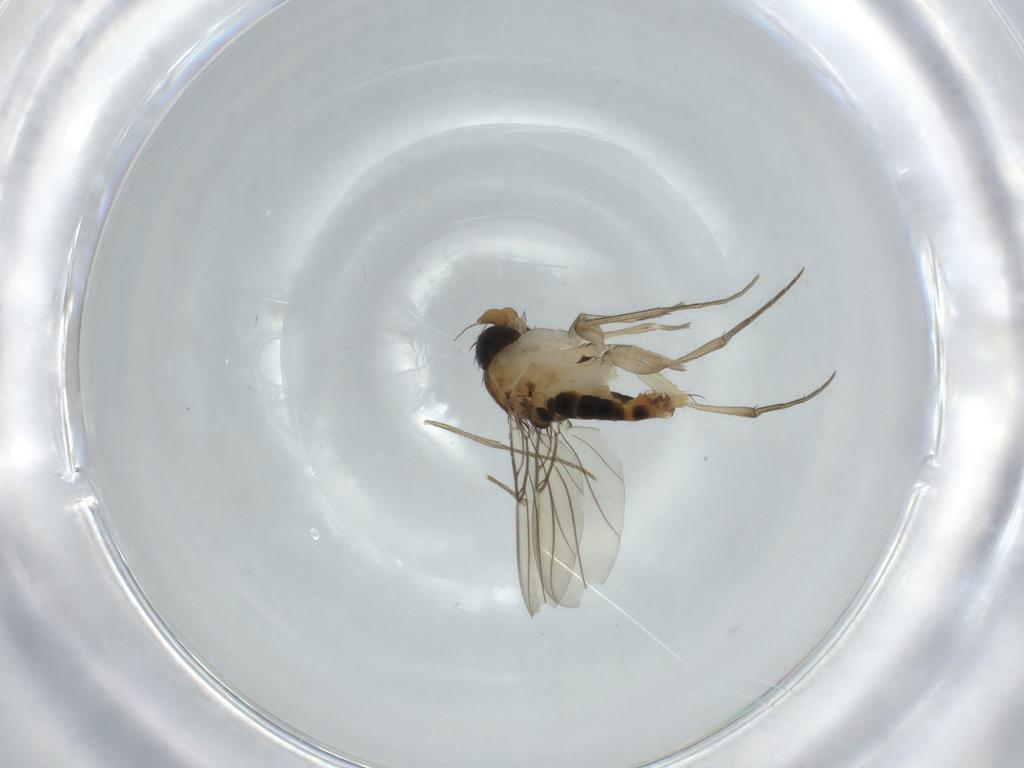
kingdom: Animalia
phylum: Arthropoda
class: Insecta
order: Diptera
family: Phoridae
